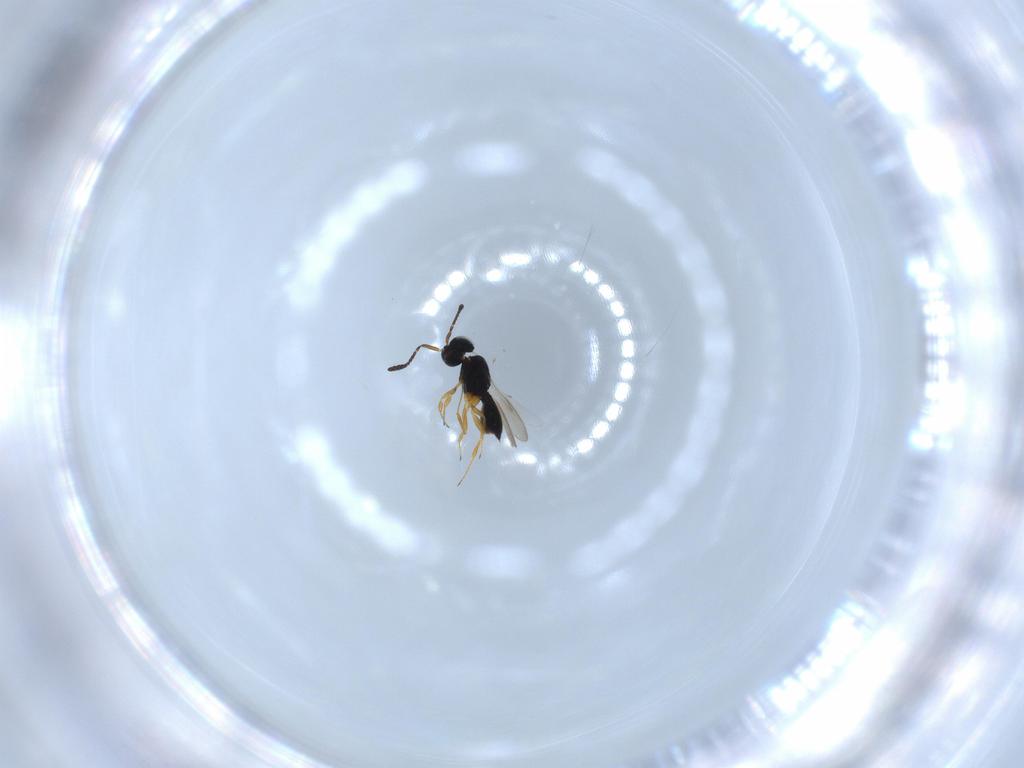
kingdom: Animalia
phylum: Arthropoda
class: Insecta
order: Hymenoptera
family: Scelionidae
